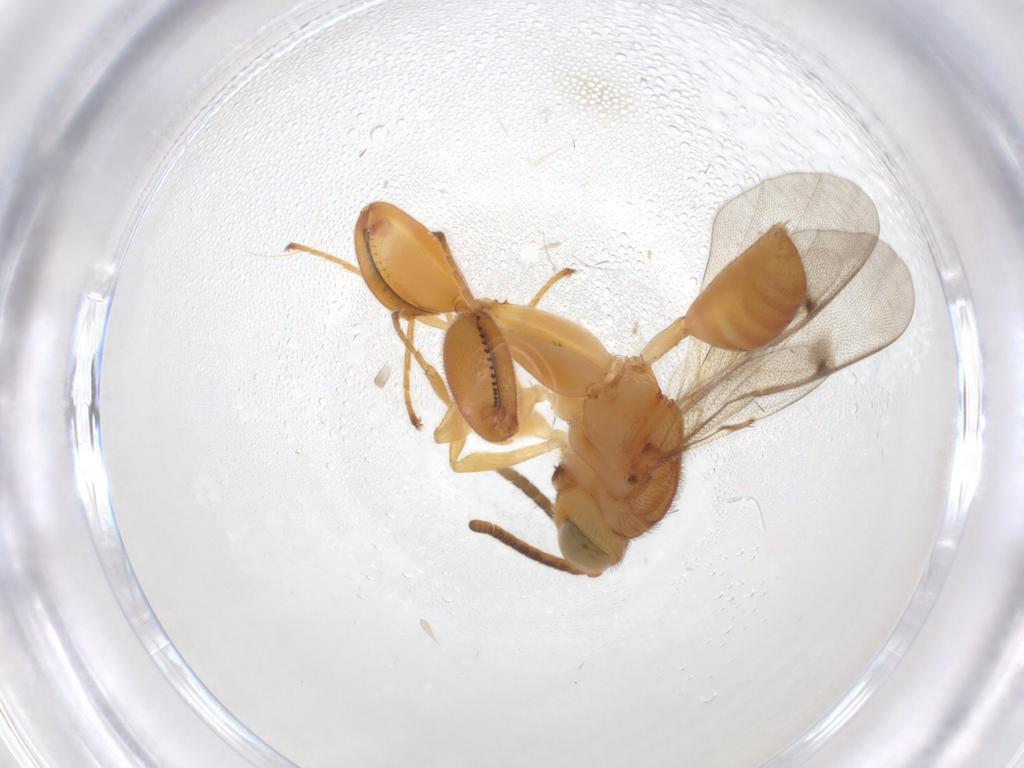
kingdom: Animalia
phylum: Arthropoda
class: Insecta
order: Hymenoptera
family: Chalcididae
